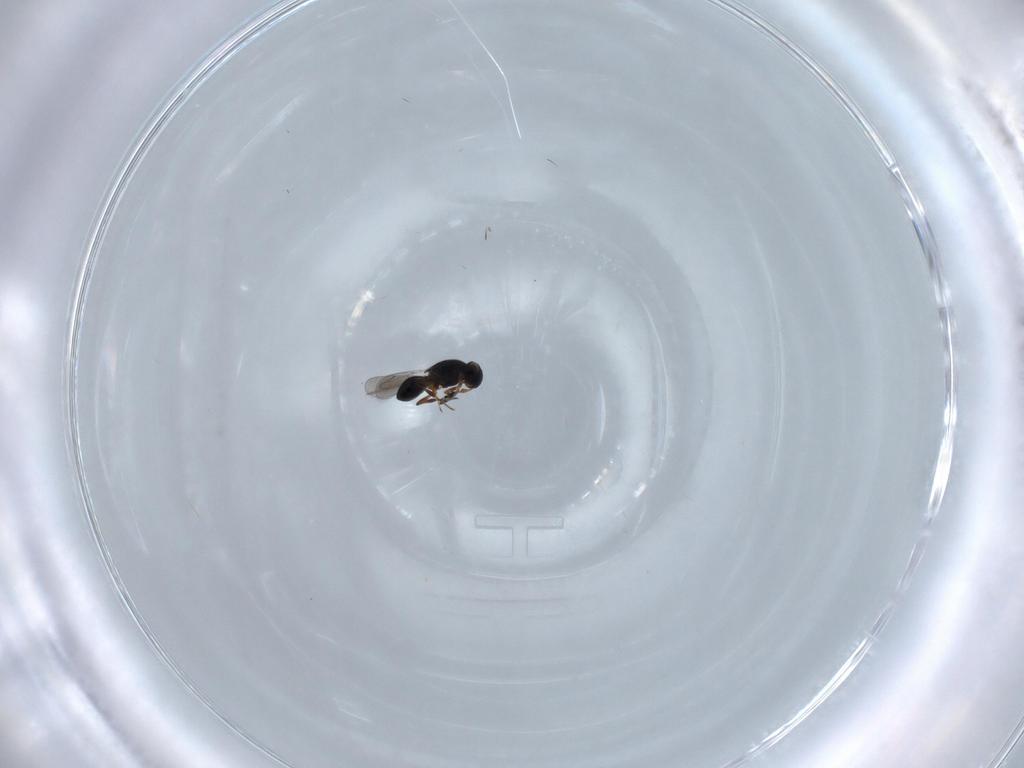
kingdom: Animalia
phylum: Arthropoda
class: Insecta
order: Hymenoptera
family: Platygastridae
